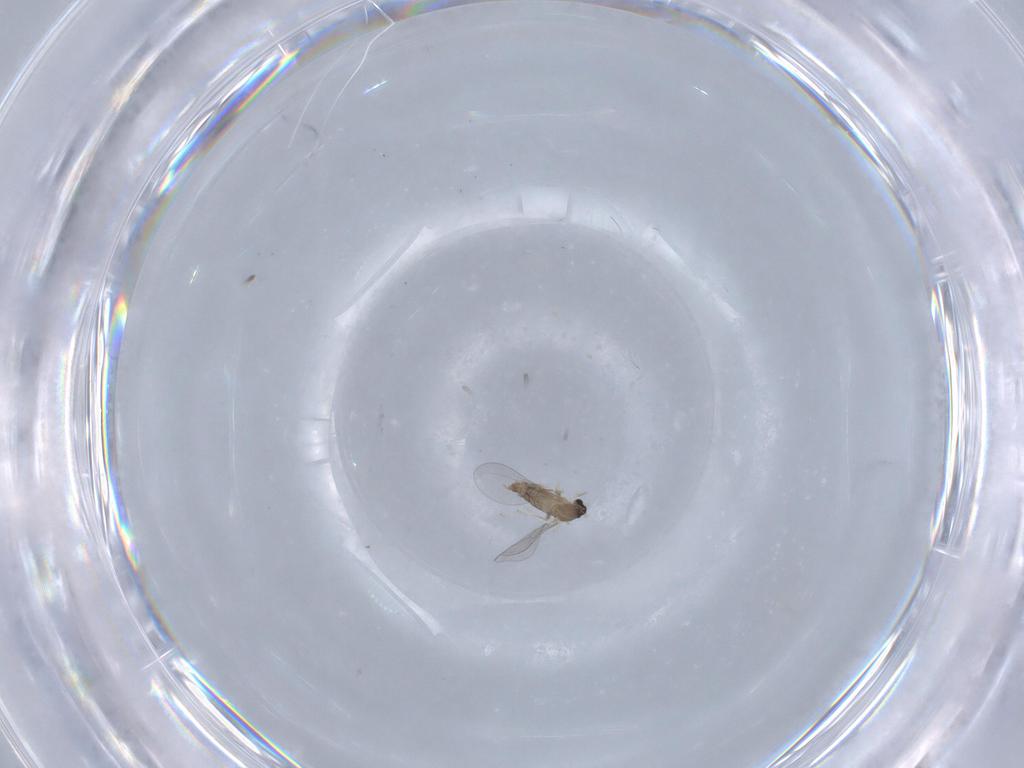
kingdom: Animalia
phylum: Arthropoda
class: Insecta
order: Diptera
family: Cecidomyiidae
